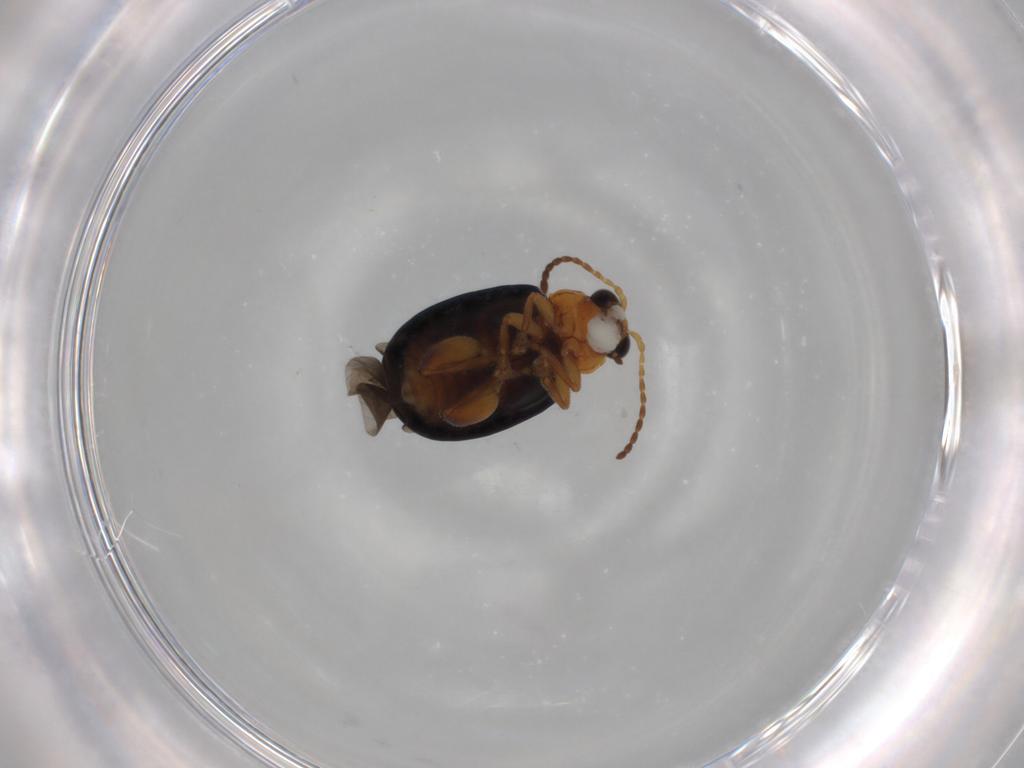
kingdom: Animalia
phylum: Arthropoda
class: Insecta
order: Coleoptera
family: Chrysomelidae
